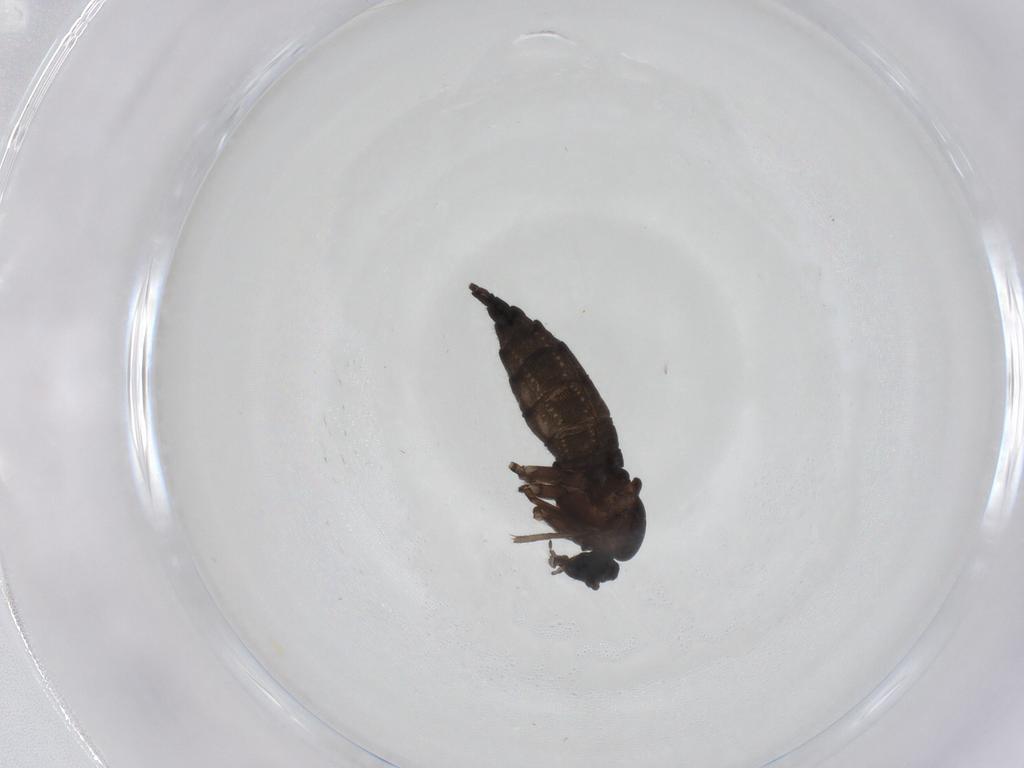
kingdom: Animalia
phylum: Arthropoda
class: Insecta
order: Diptera
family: Sciaridae
